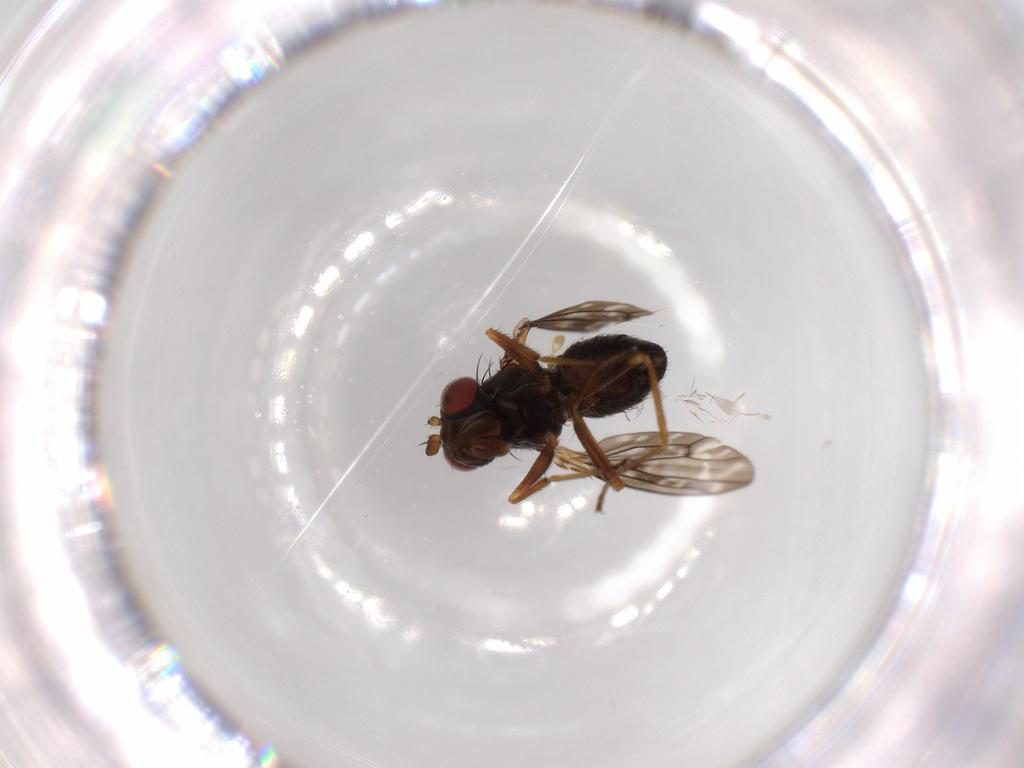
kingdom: Animalia
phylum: Arthropoda
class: Insecta
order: Diptera
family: Ephydridae
